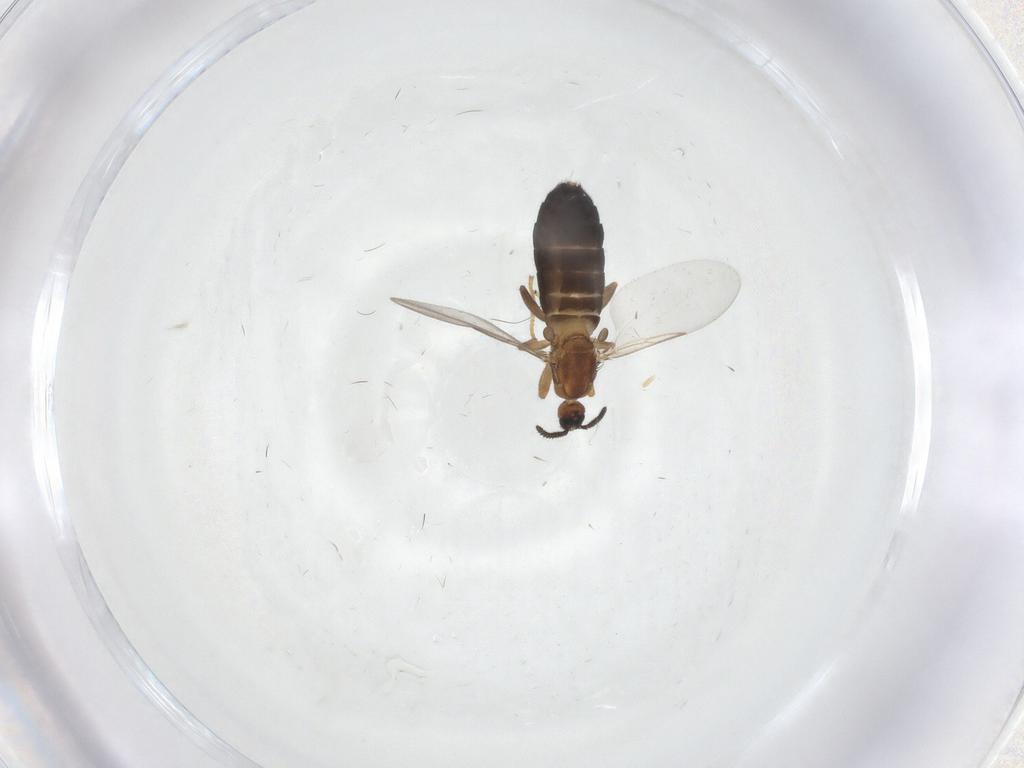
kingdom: Animalia
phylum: Arthropoda
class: Insecta
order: Diptera
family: Scatopsidae
